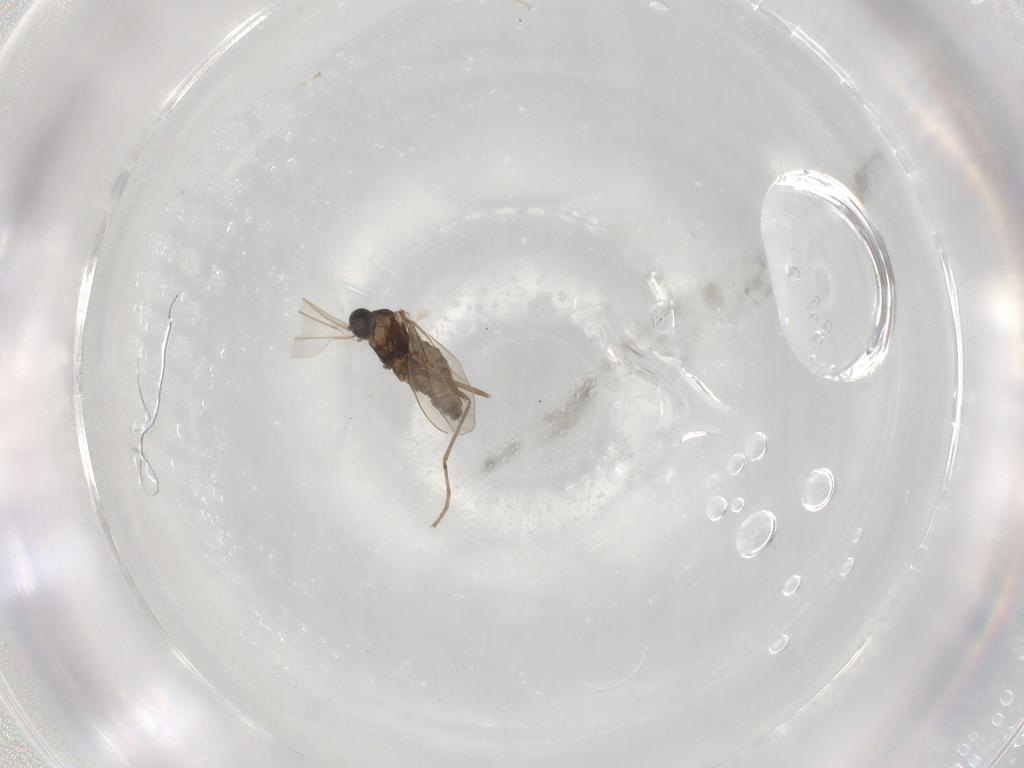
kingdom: Animalia
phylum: Arthropoda
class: Insecta
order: Diptera
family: Cecidomyiidae
